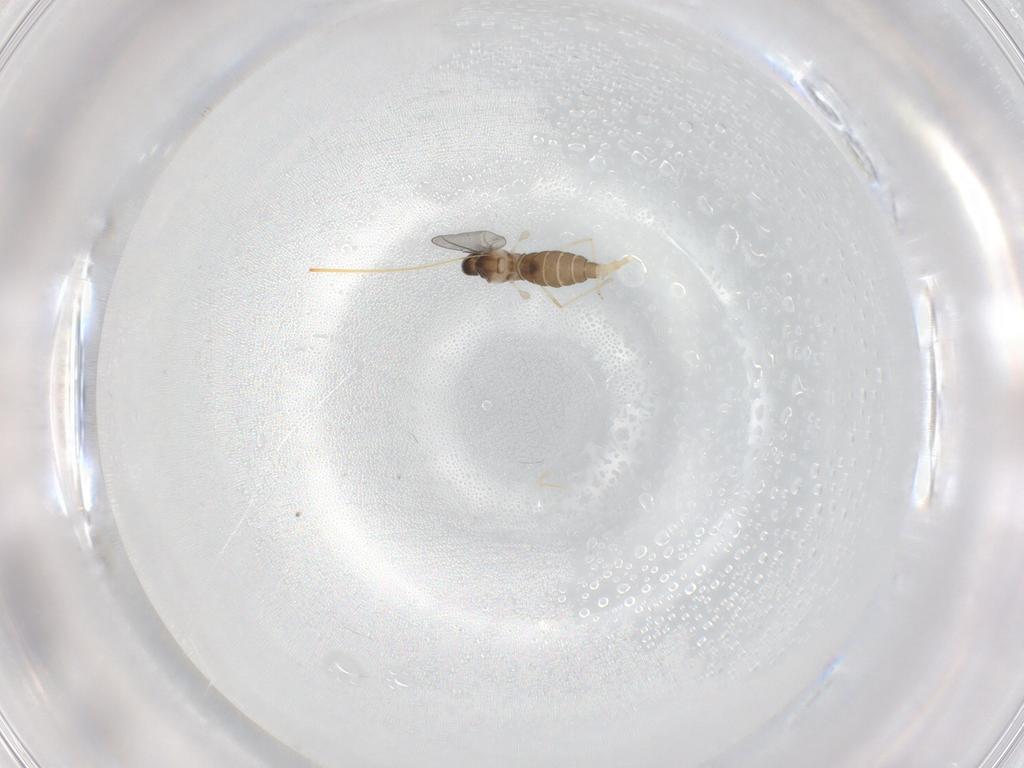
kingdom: Animalia
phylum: Arthropoda
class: Insecta
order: Diptera
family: Cecidomyiidae
